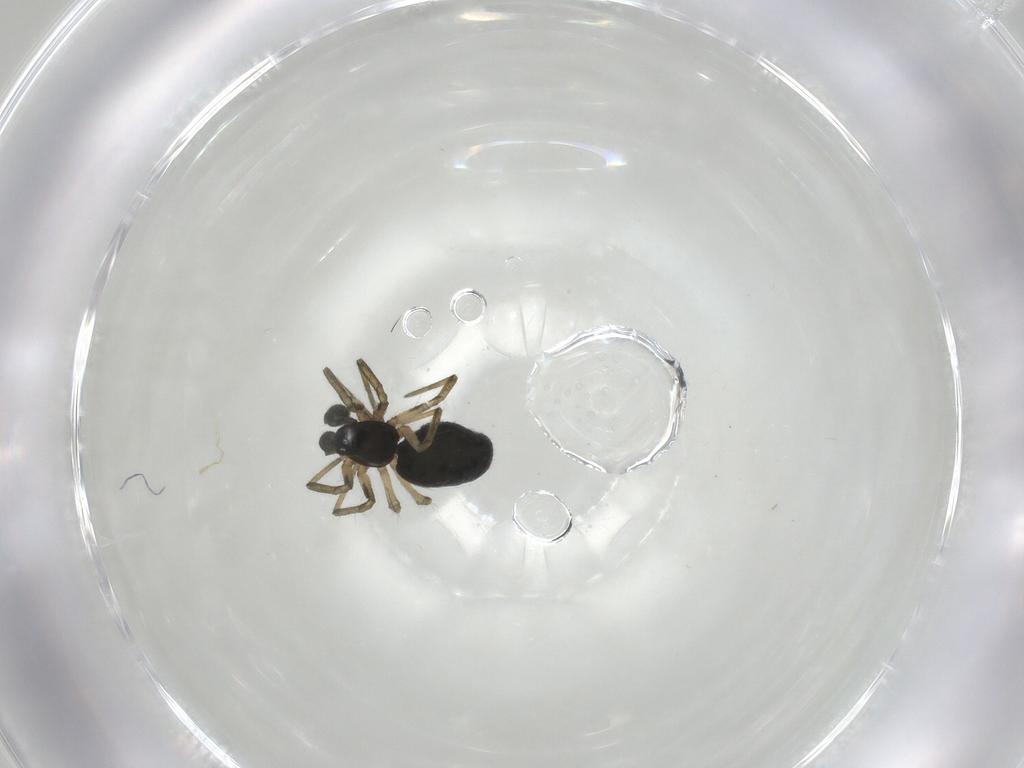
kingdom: Animalia
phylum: Arthropoda
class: Arachnida
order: Araneae
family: Linyphiidae
